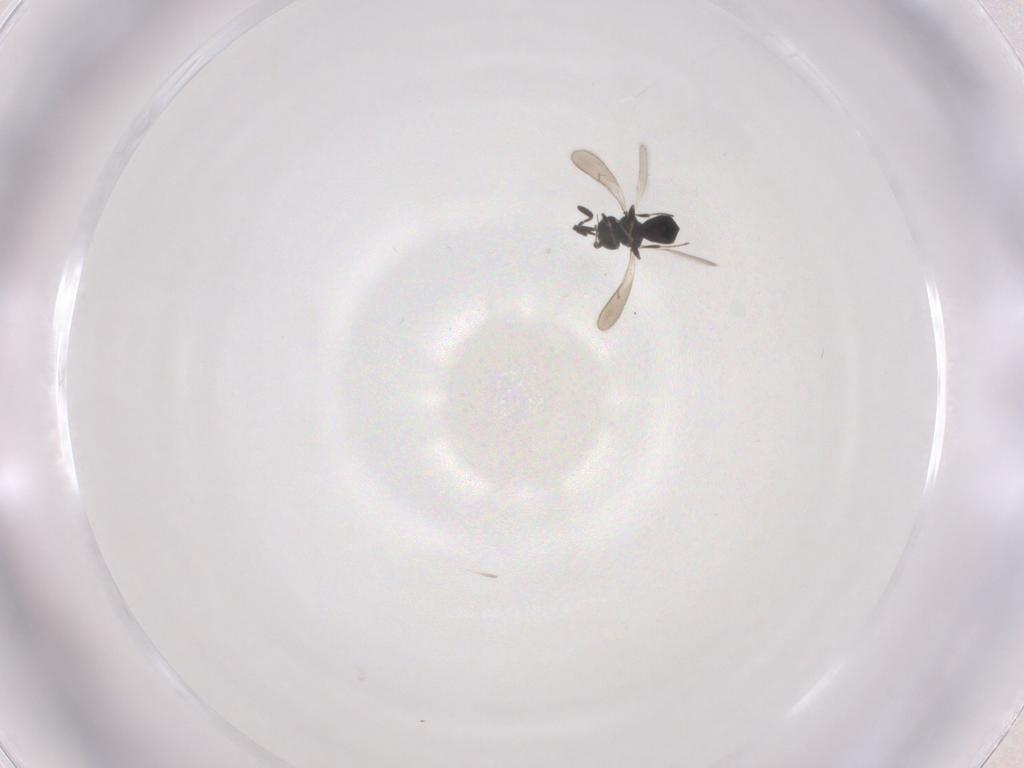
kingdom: Animalia
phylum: Arthropoda
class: Insecta
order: Hymenoptera
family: Scelionidae
